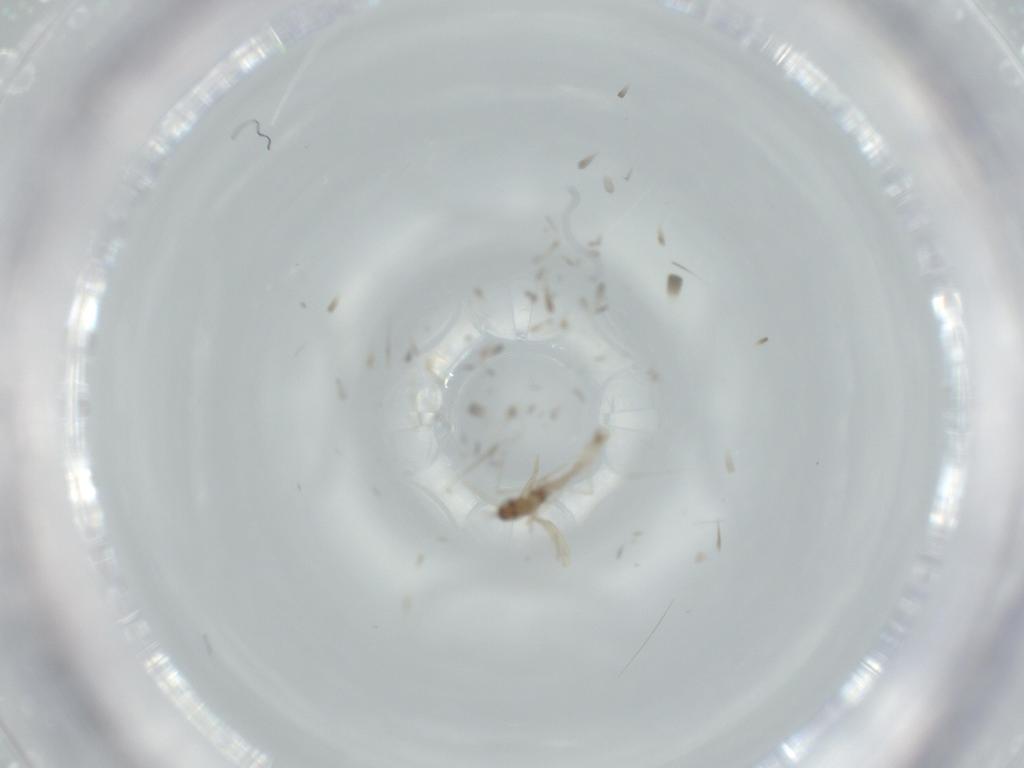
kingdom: Animalia
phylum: Arthropoda
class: Insecta
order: Diptera
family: Cecidomyiidae
